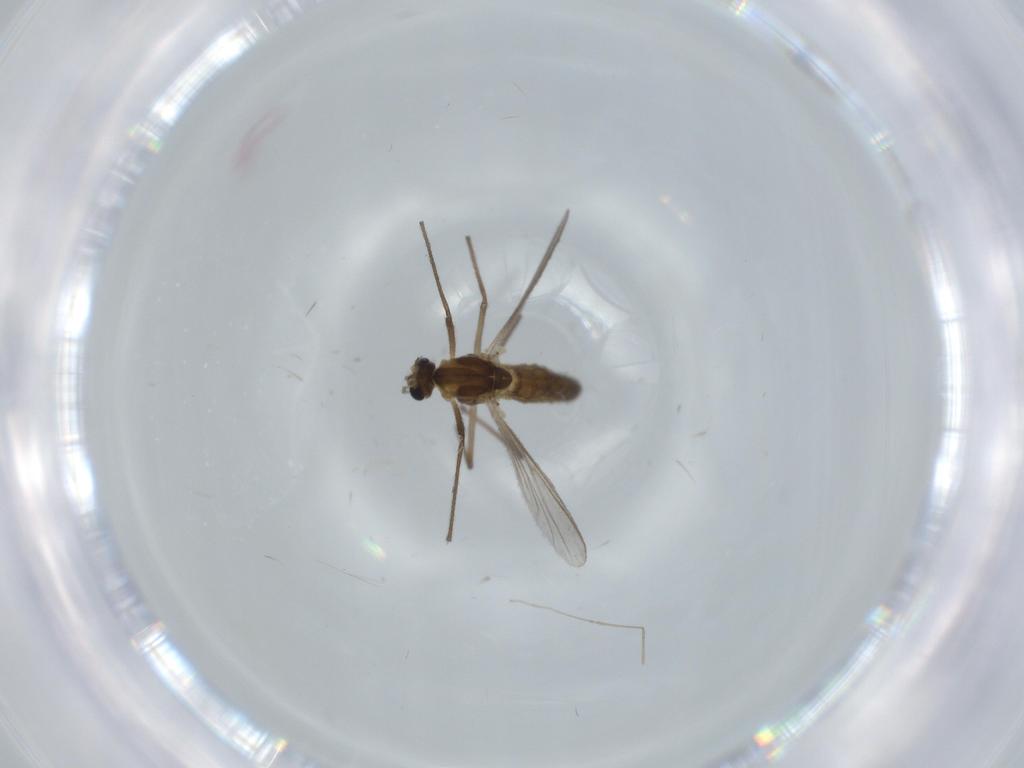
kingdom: Animalia
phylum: Arthropoda
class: Insecta
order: Diptera
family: Chironomidae
